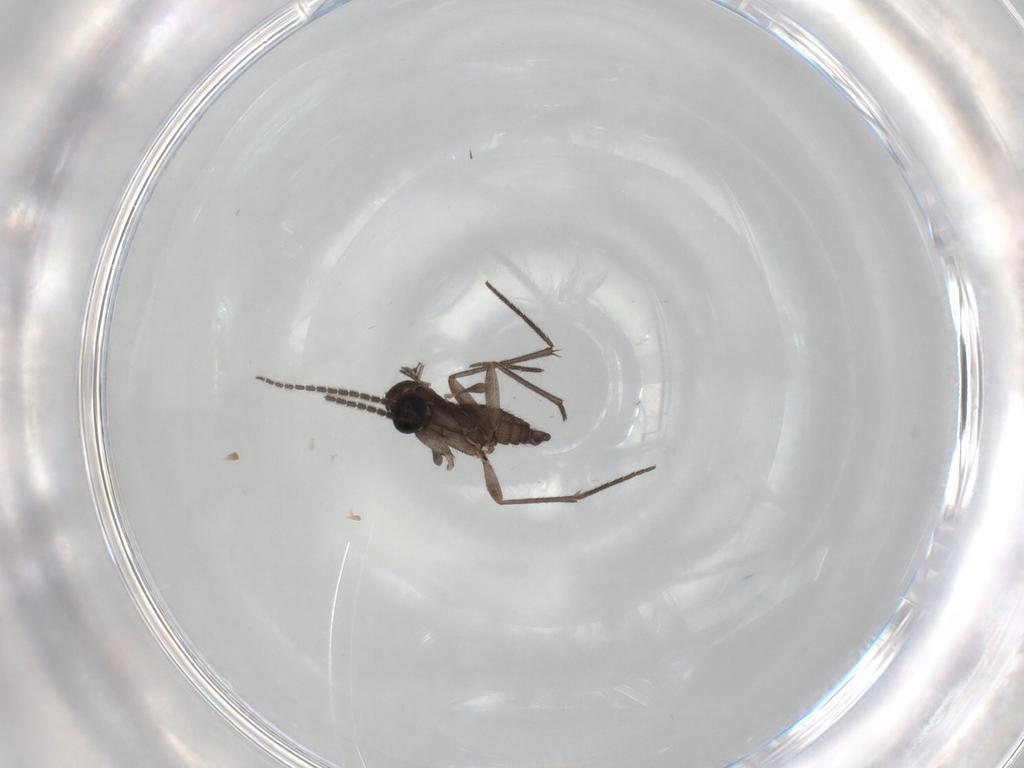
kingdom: Animalia
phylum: Arthropoda
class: Insecta
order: Diptera
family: Sciaridae
